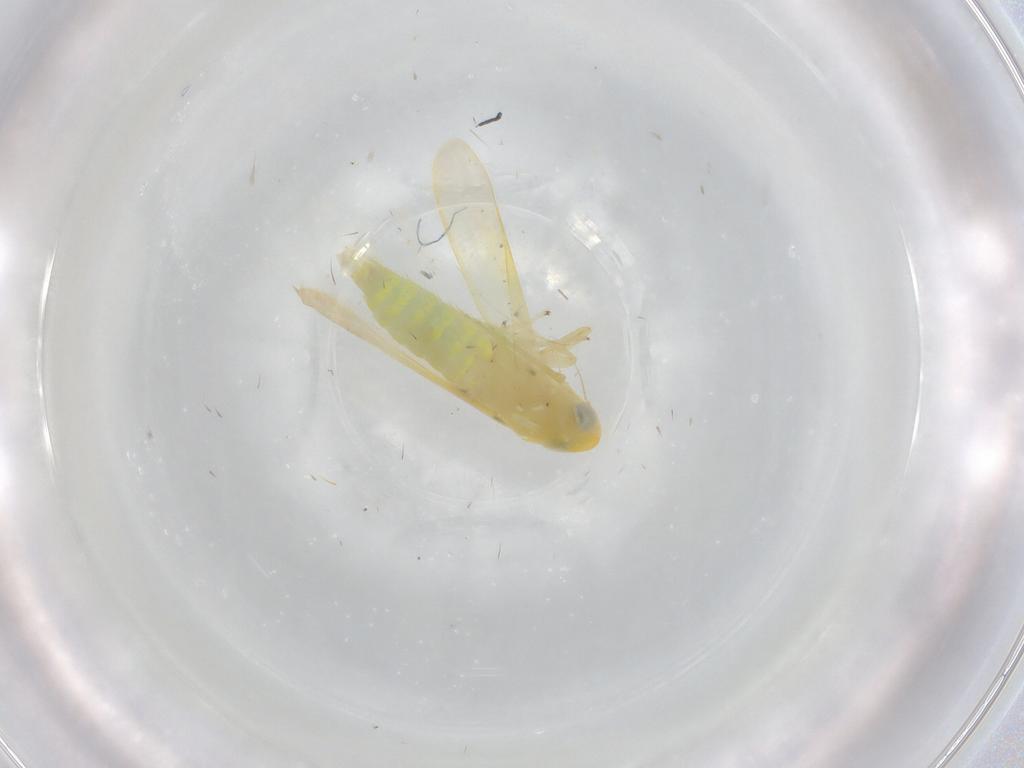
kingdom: Animalia
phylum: Arthropoda
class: Insecta
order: Hemiptera
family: Cicadellidae
